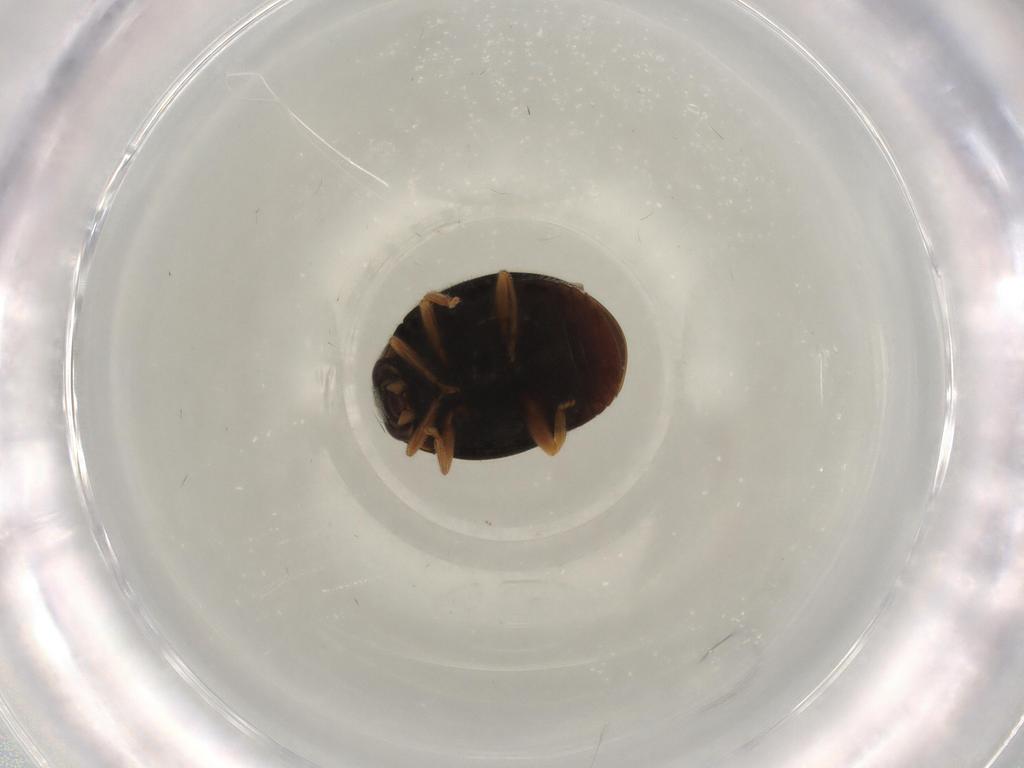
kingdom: Animalia
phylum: Arthropoda
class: Insecta
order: Coleoptera
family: Coccinellidae
